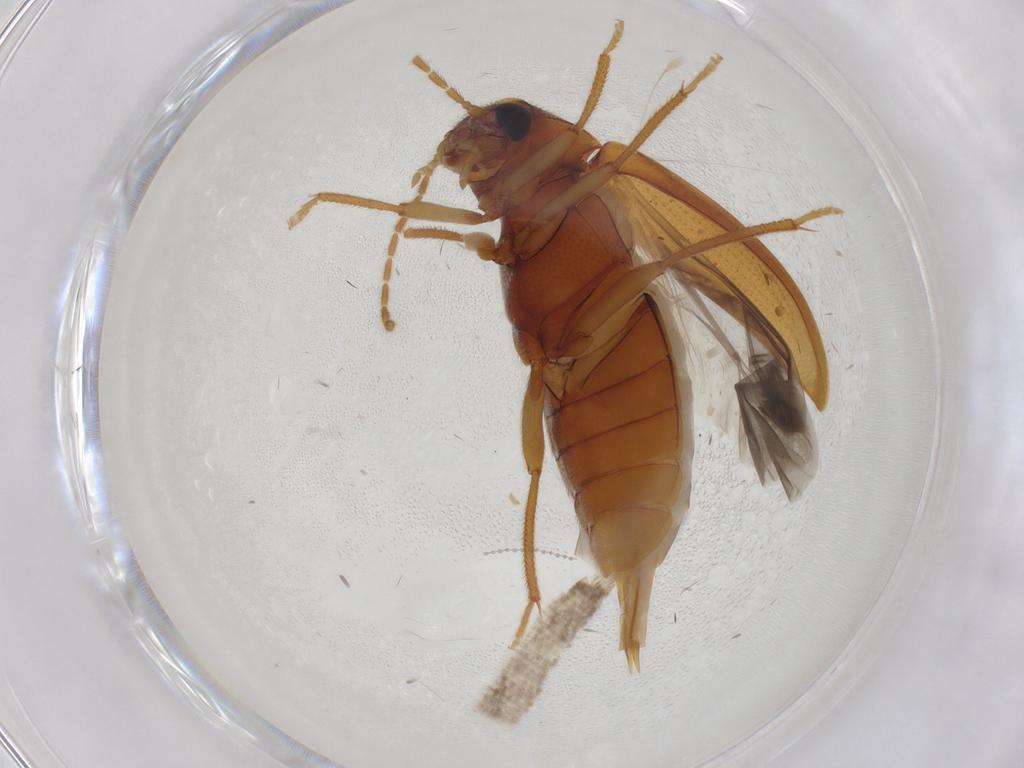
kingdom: Animalia
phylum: Arthropoda
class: Insecta
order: Coleoptera
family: Ptilodactylidae
